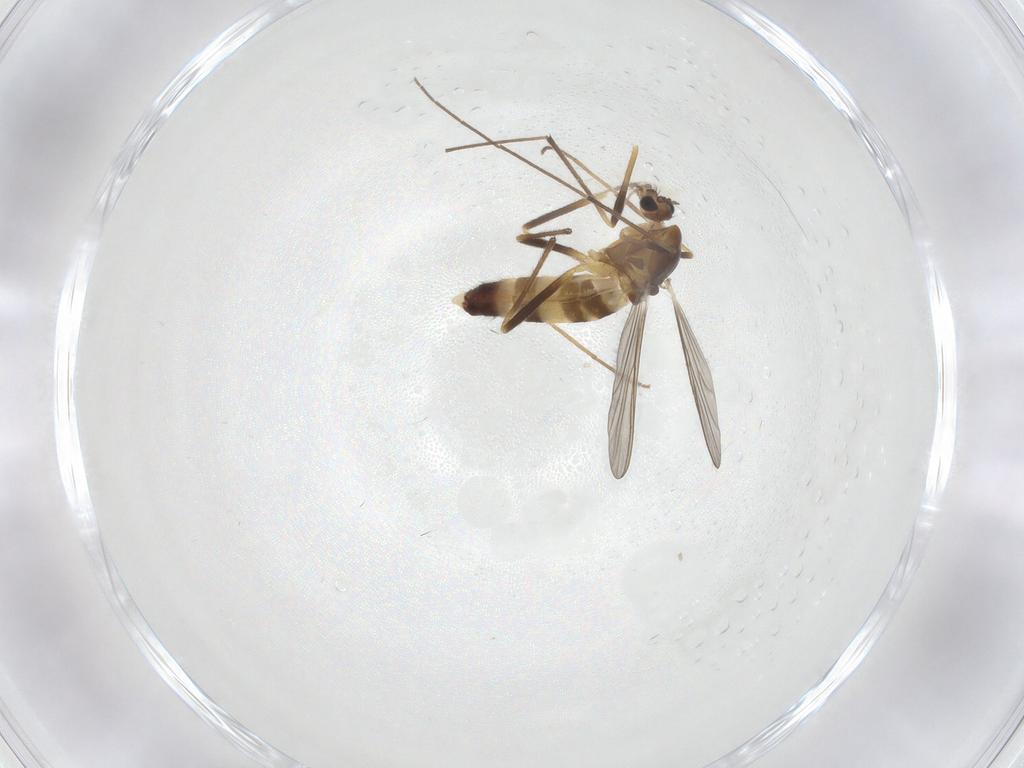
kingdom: Animalia
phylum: Arthropoda
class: Insecta
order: Diptera
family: Chironomidae
